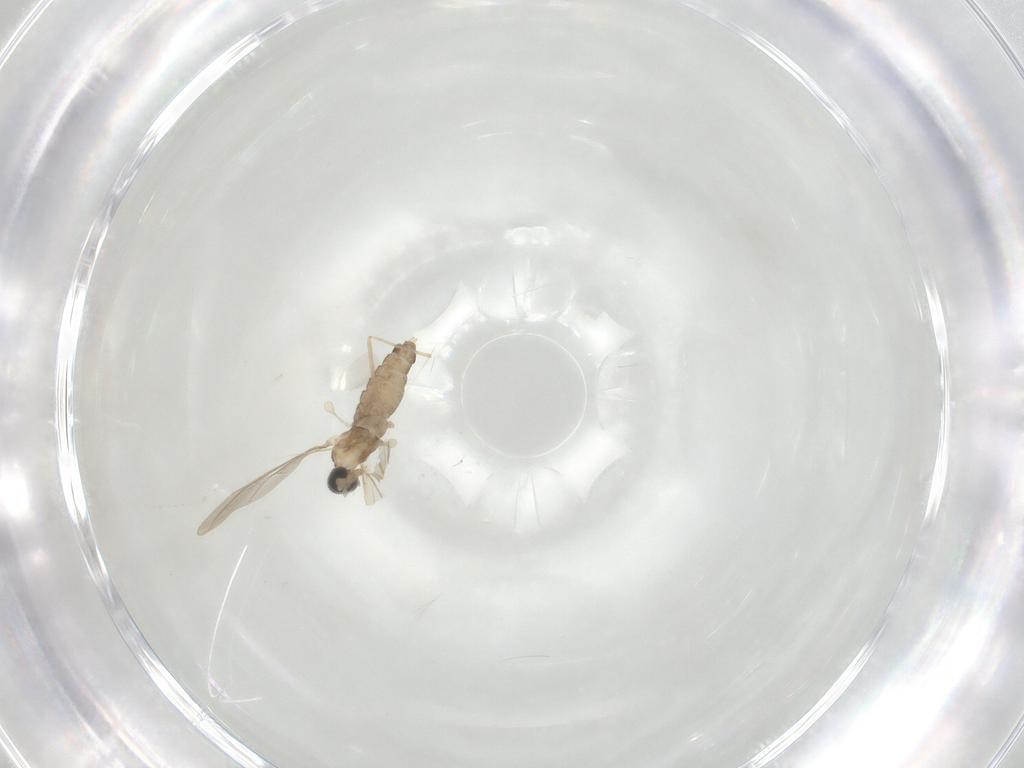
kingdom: Animalia
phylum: Arthropoda
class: Insecta
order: Diptera
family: Cecidomyiidae
